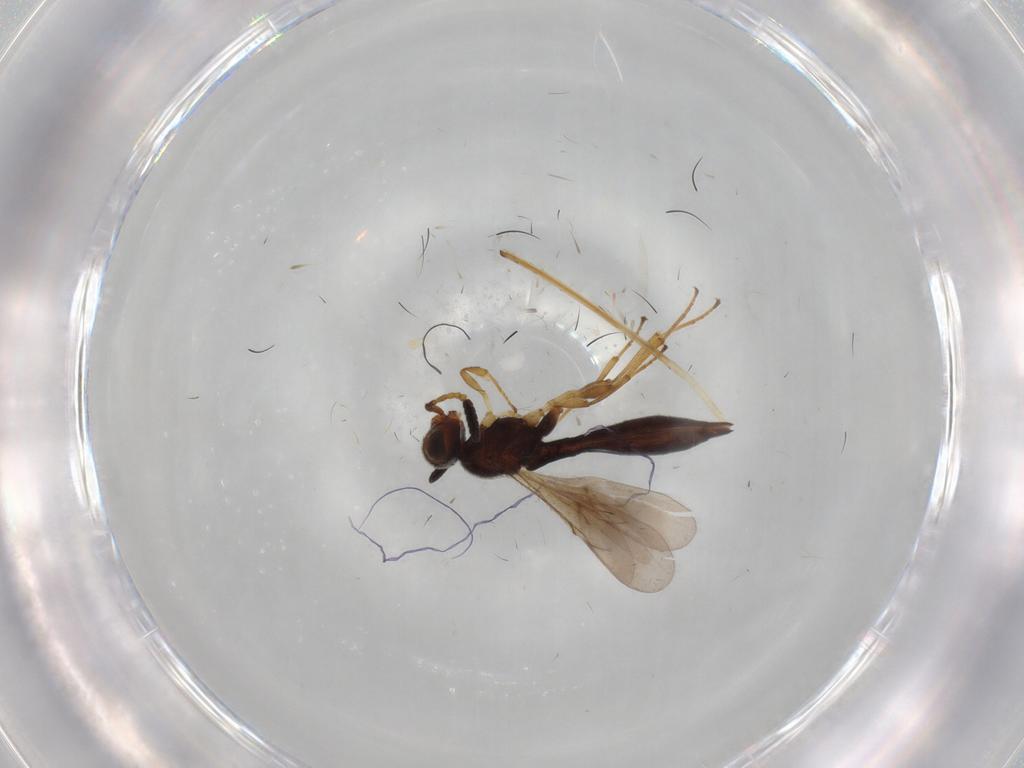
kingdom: Animalia
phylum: Arthropoda
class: Insecta
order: Hymenoptera
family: Scelionidae
